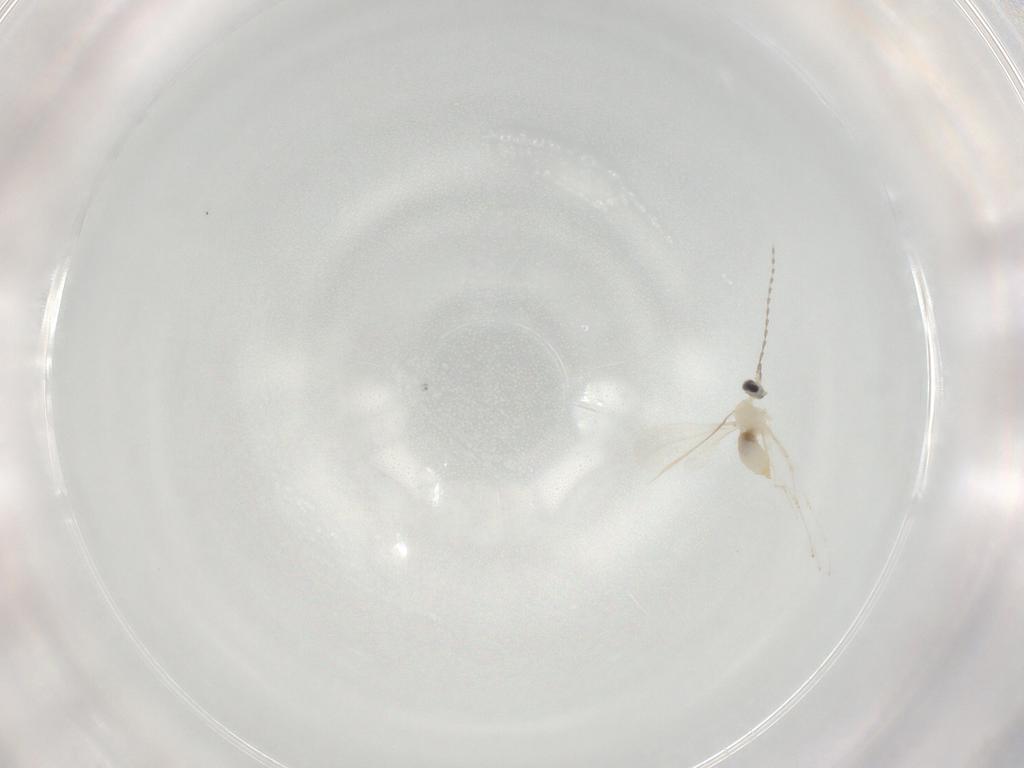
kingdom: Animalia
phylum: Arthropoda
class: Insecta
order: Diptera
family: Cecidomyiidae
